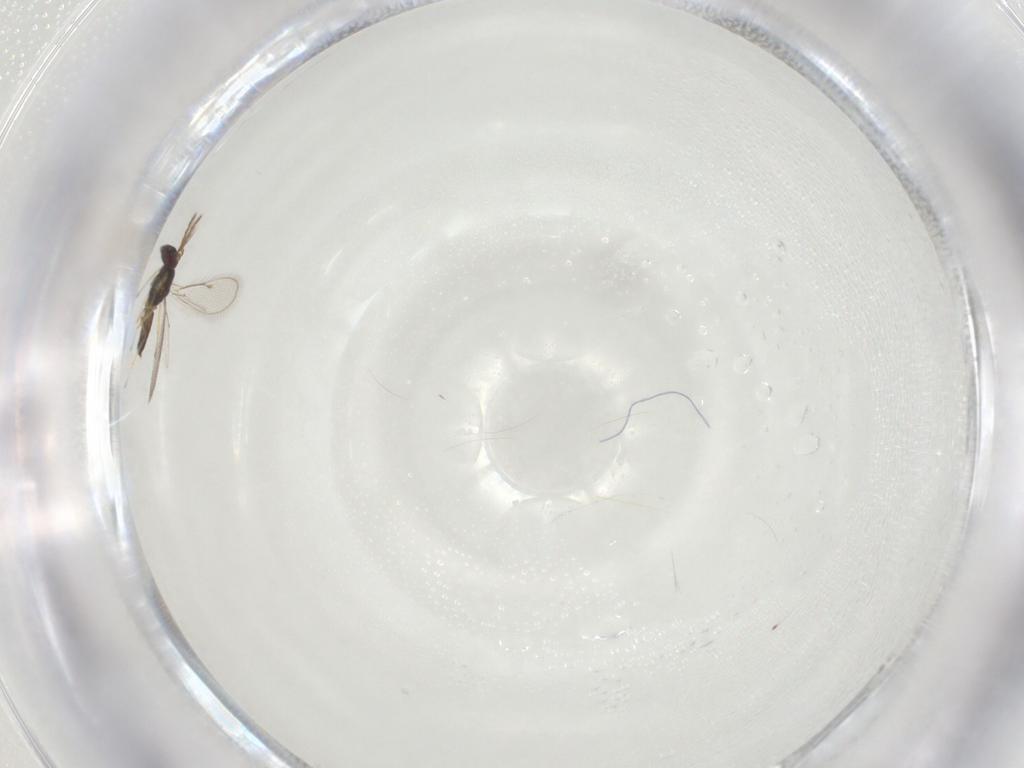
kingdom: Animalia
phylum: Arthropoda
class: Insecta
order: Hymenoptera
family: Eulophidae
